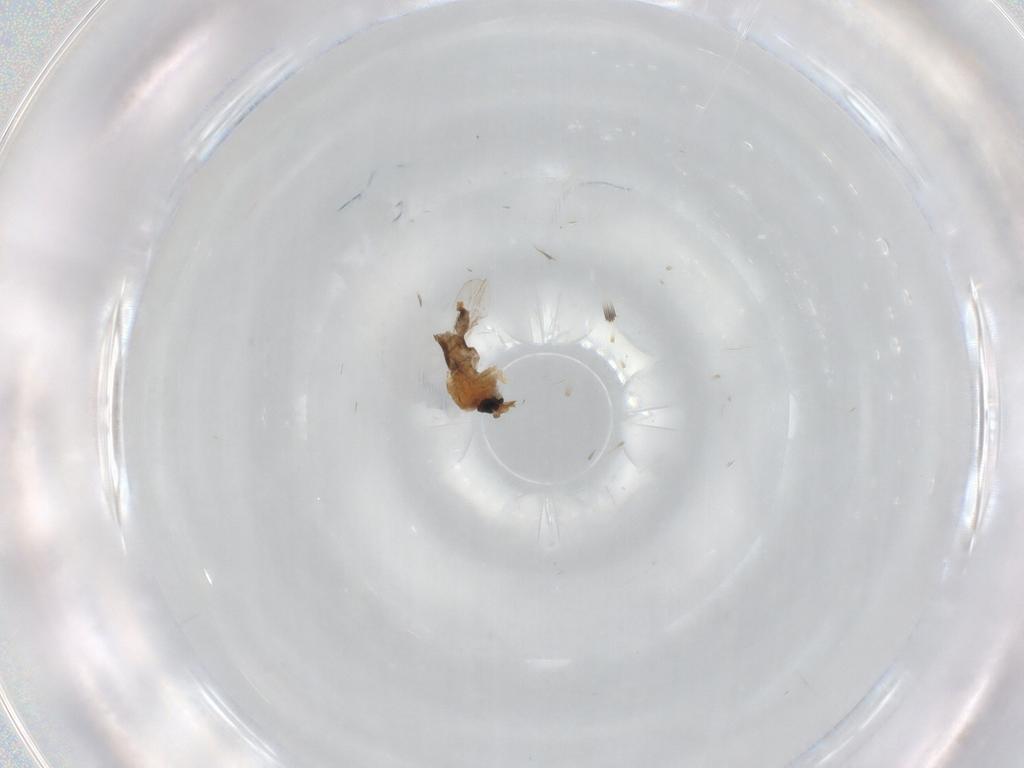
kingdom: Animalia
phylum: Arthropoda
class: Insecta
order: Diptera
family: Ceratopogonidae
